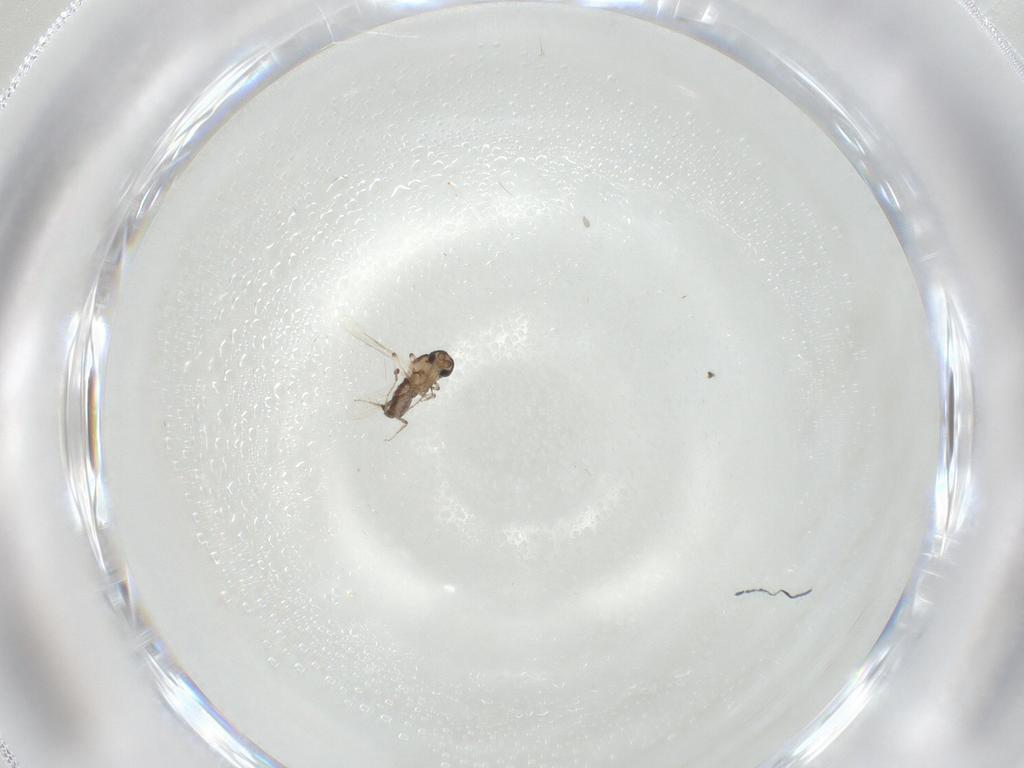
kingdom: Animalia
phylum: Arthropoda
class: Insecta
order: Diptera
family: Ceratopogonidae
